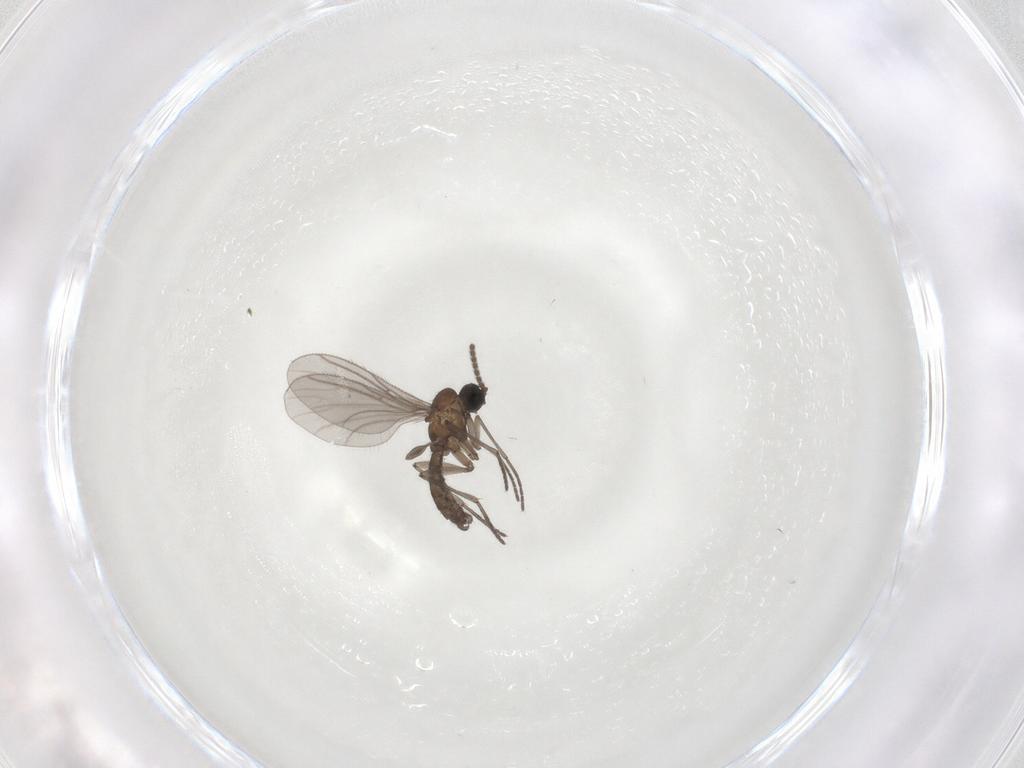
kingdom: Animalia
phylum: Arthropoda
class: Insecta
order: Diptera
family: Sciaridae
